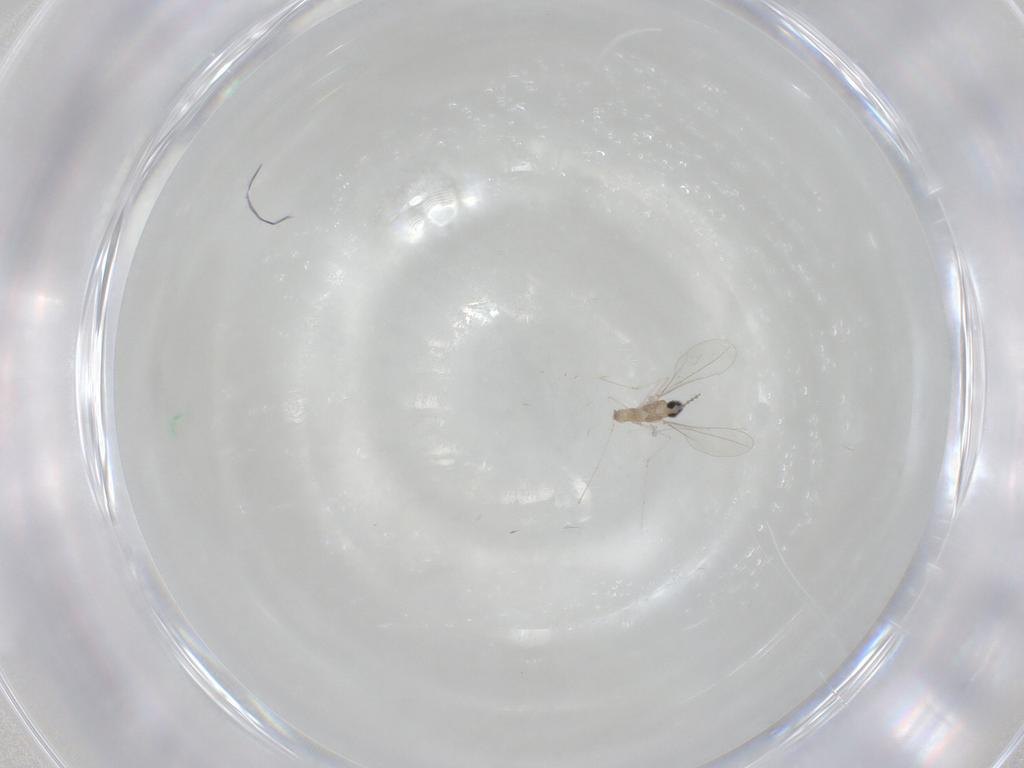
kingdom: Animalia
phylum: Arthropoda
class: Insecta
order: Diptera
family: Cecidomyiidae
